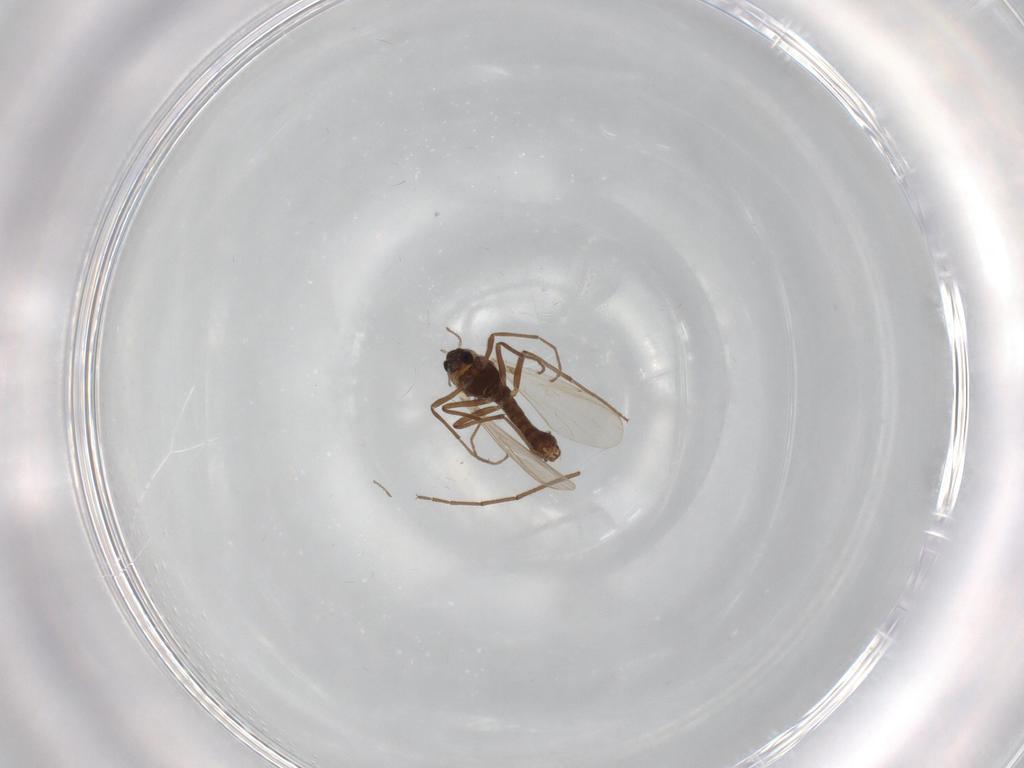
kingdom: Animalia
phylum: Arthropoda
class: Insecta
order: Diptera
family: Chironomidae
